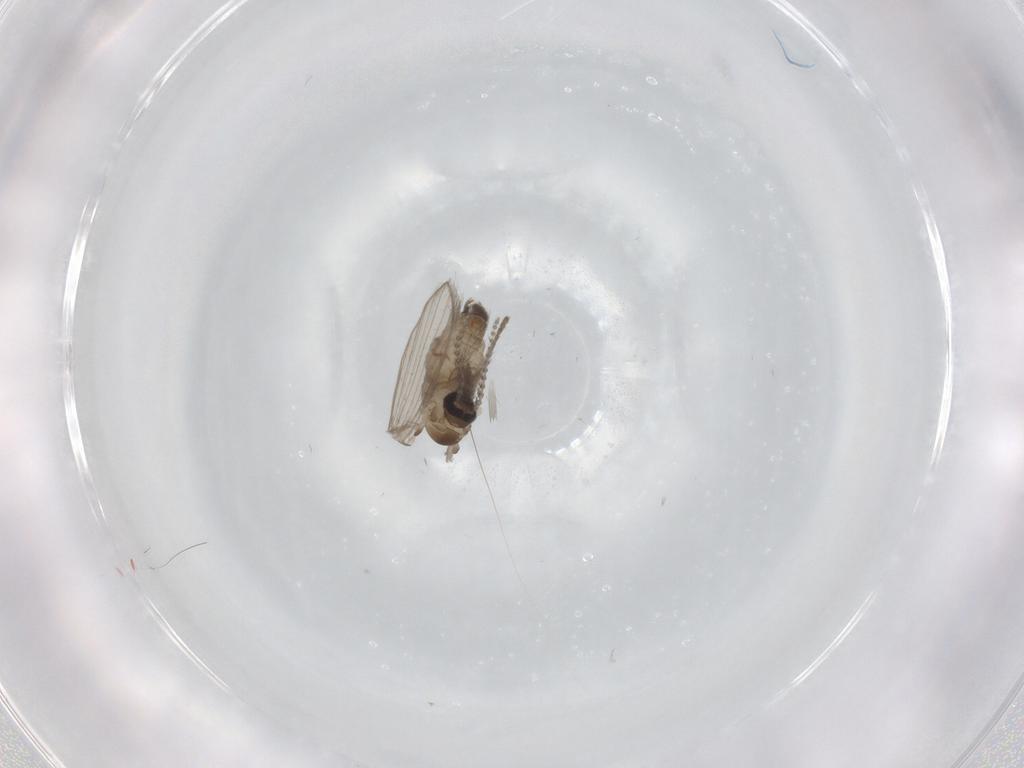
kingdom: Animalia
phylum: Arthropoda
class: Insecta
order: Diptera
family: Psychodidae
